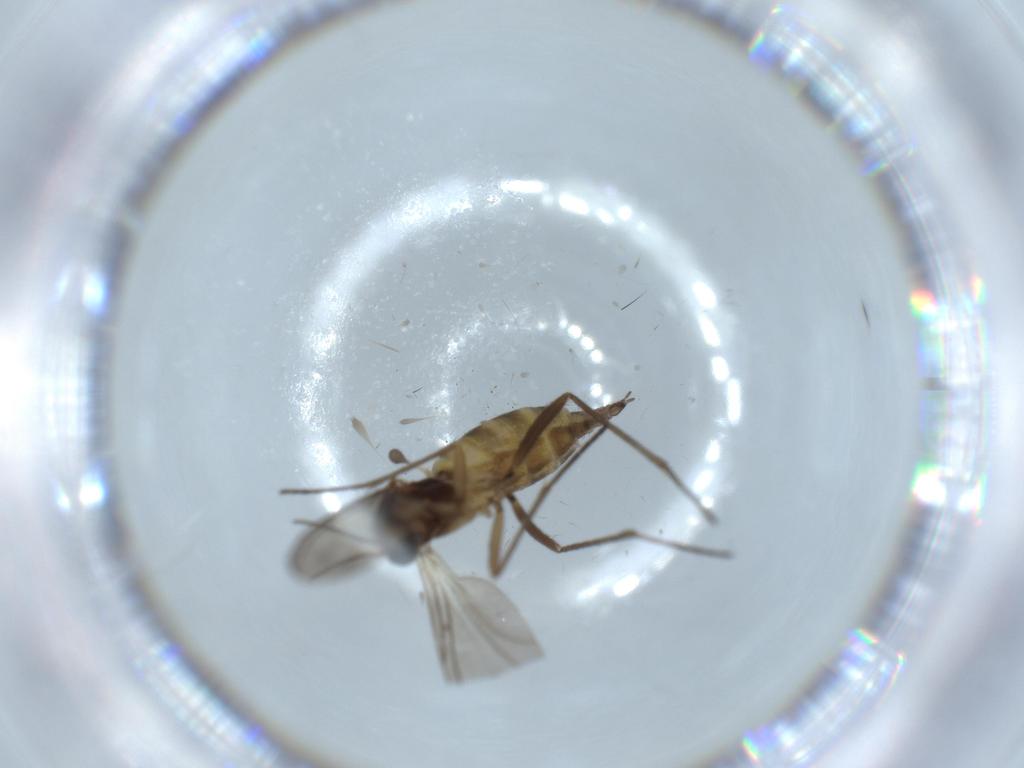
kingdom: Animalia
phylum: Arthropoda
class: Insecta
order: Diptera
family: Sciaridae
